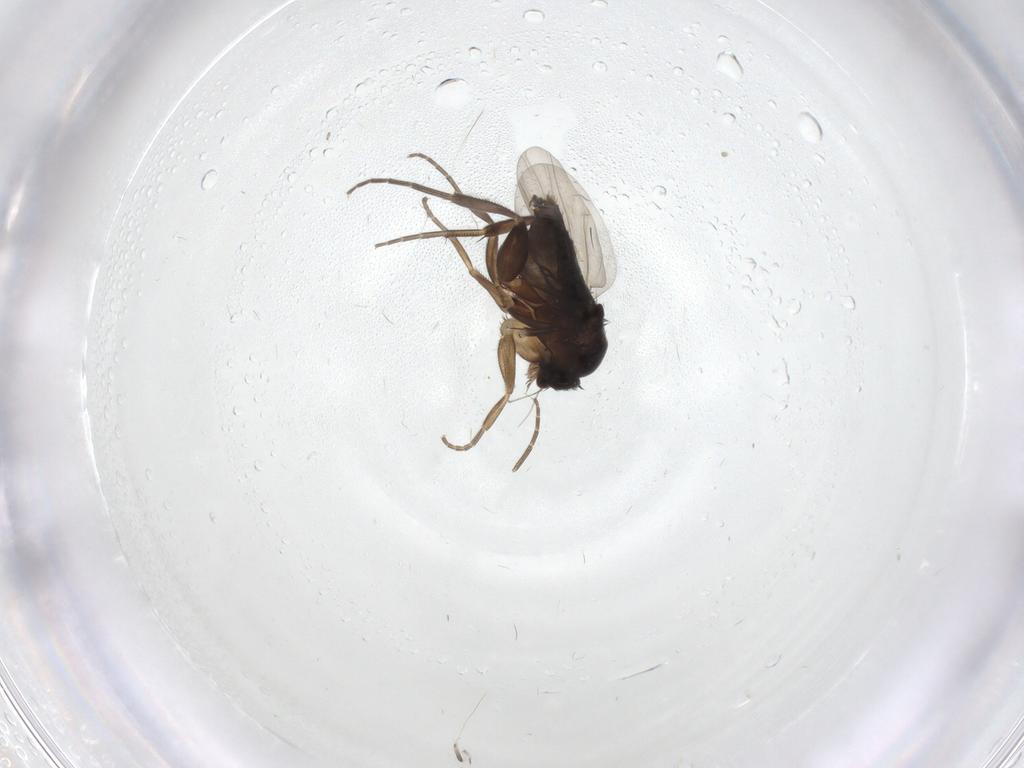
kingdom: Animalia
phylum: Arthropoda
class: Insecta
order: Diptera
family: Phoridae
